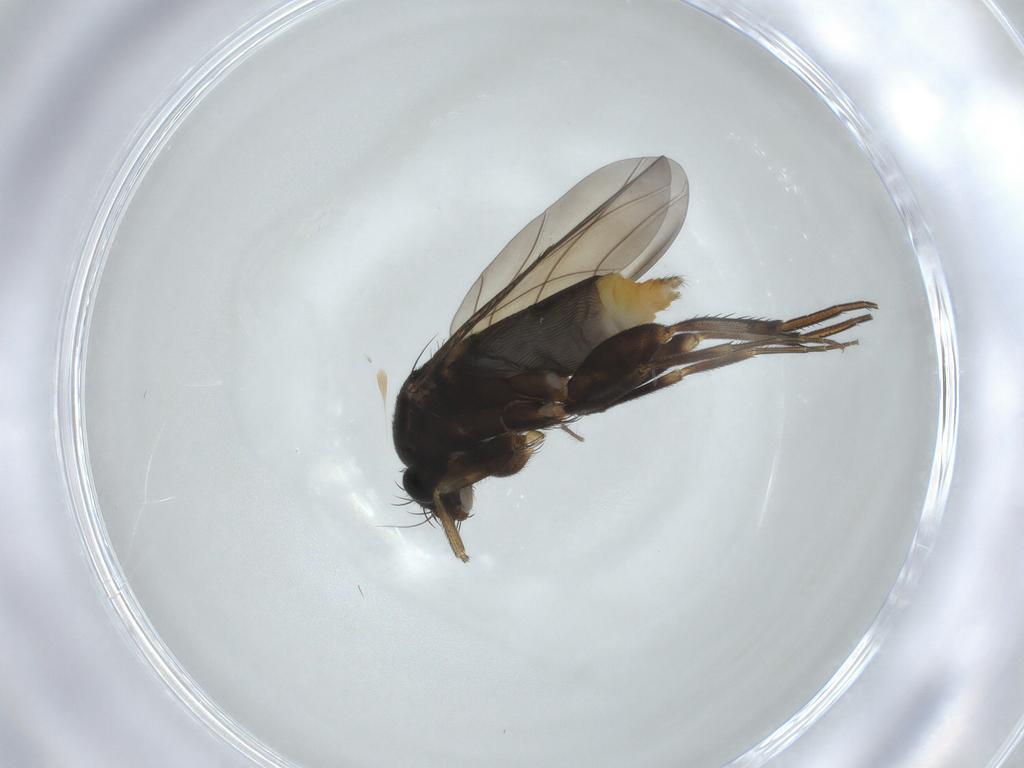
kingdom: Animalia
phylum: Arthropoda
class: Insecta
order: Diptera
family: Phoridae
